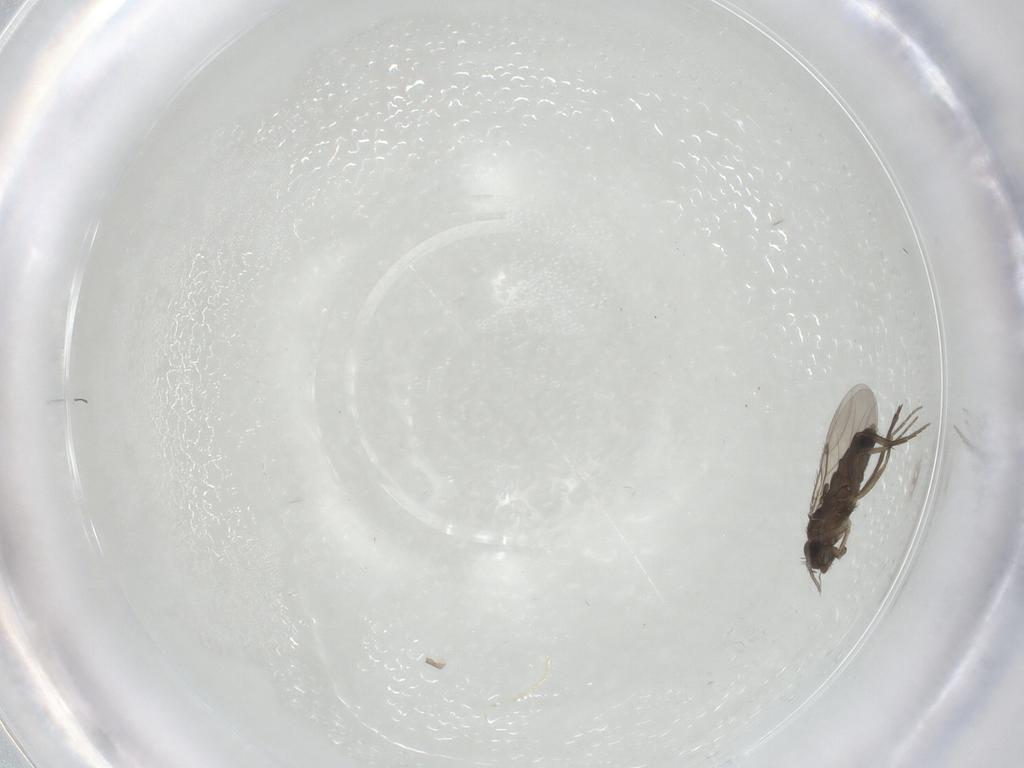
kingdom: Animalia
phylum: Arthropoda
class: Insecta
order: Diptera
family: Phoridae
